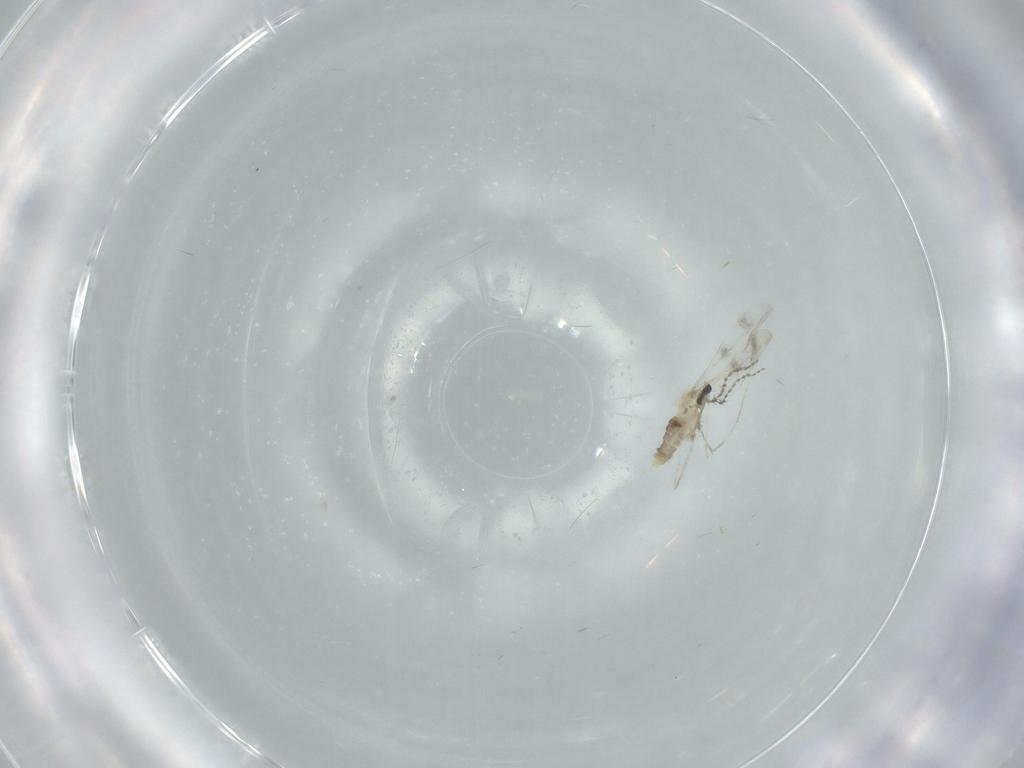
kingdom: Animalia
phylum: Arthropoda
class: Insecta
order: Diptera
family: Cecidomyiidae
